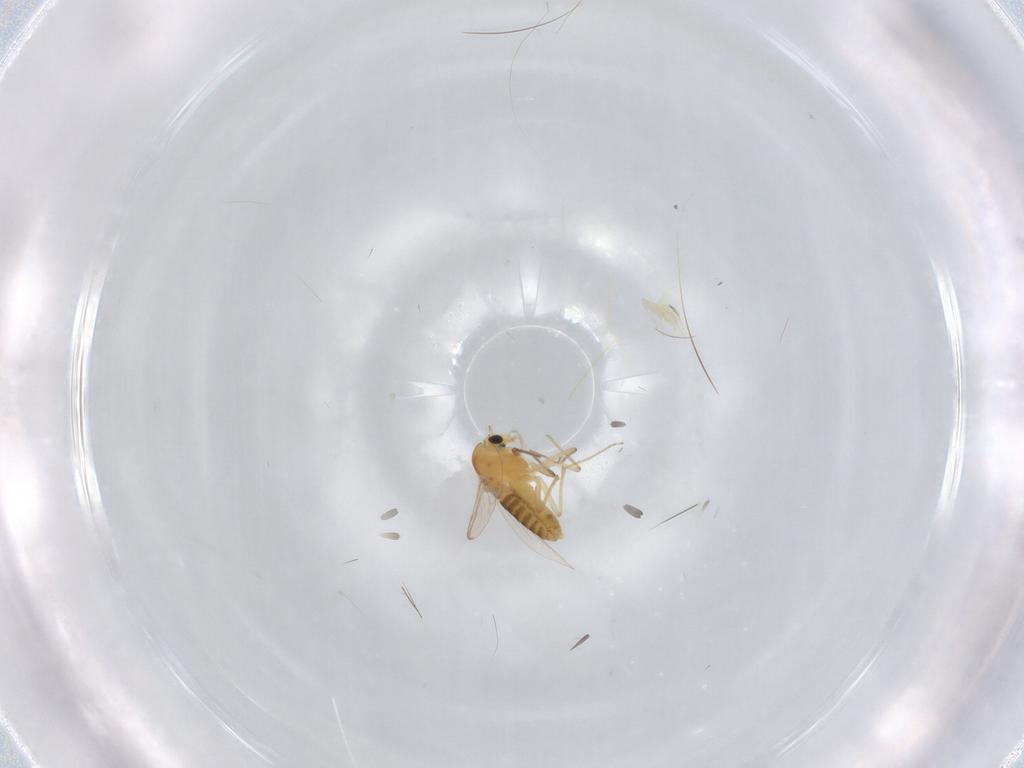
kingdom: Animalia
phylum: Arthropoda
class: Insecta
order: Diptera
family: Chironomidae
